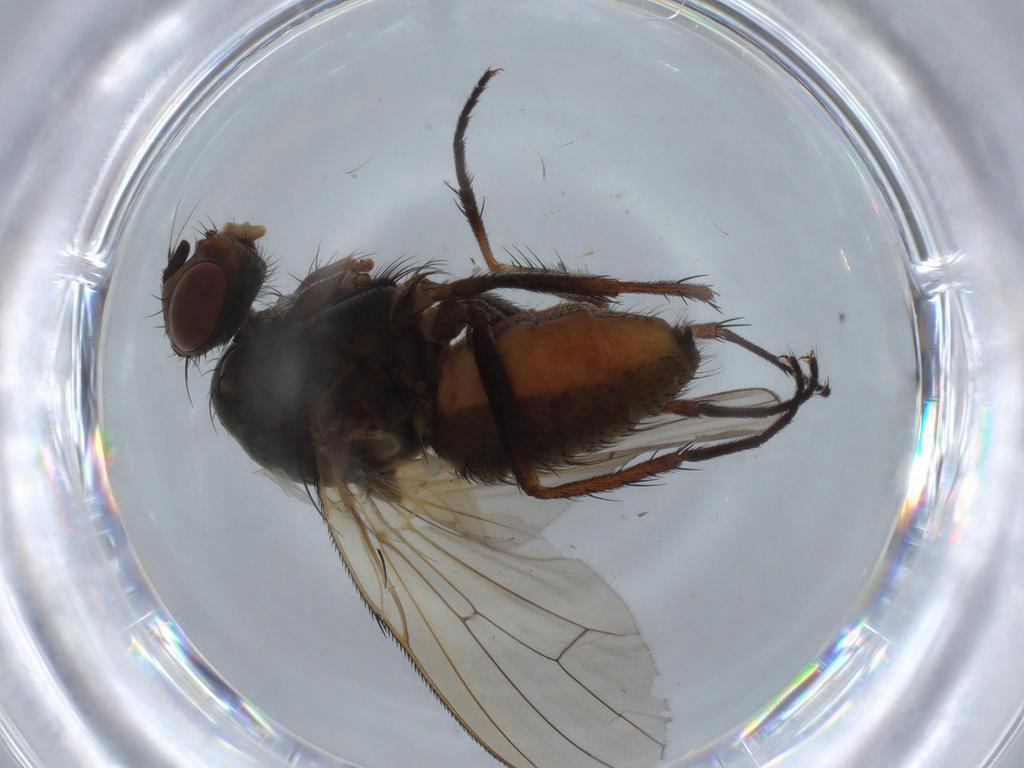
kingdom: Animalia
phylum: Arthropoda
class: Insecta
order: Diptera
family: Anthomyiidae
